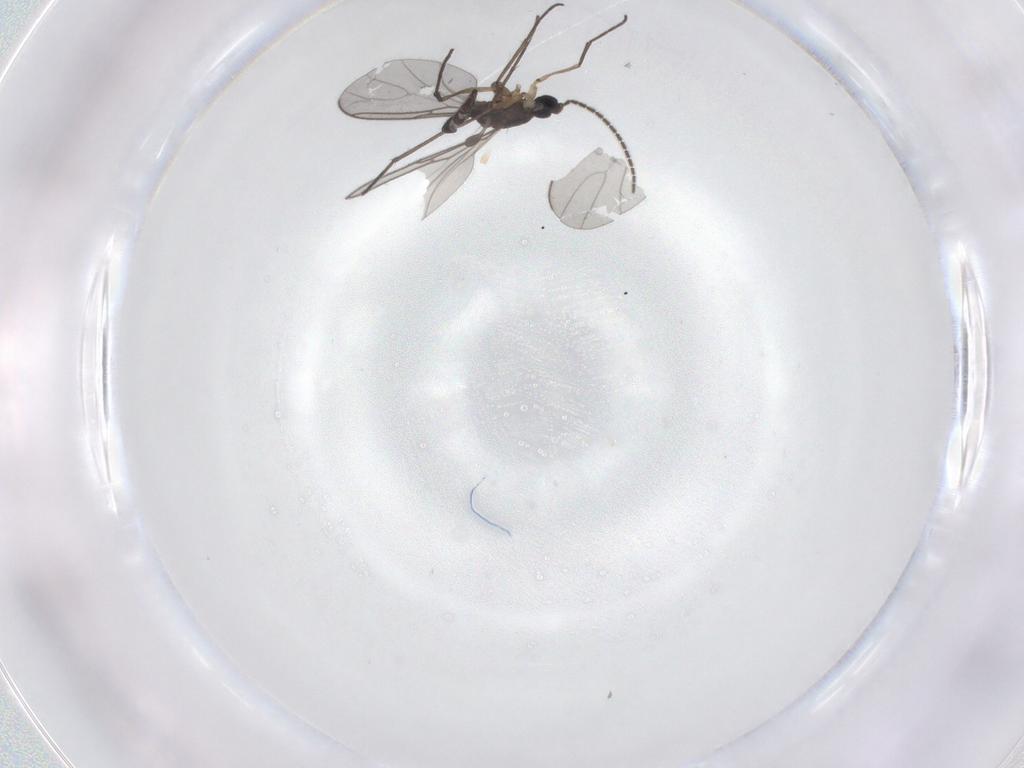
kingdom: Animalia
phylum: Arthropoda
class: Insecta
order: Diptera
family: Sciaridae
